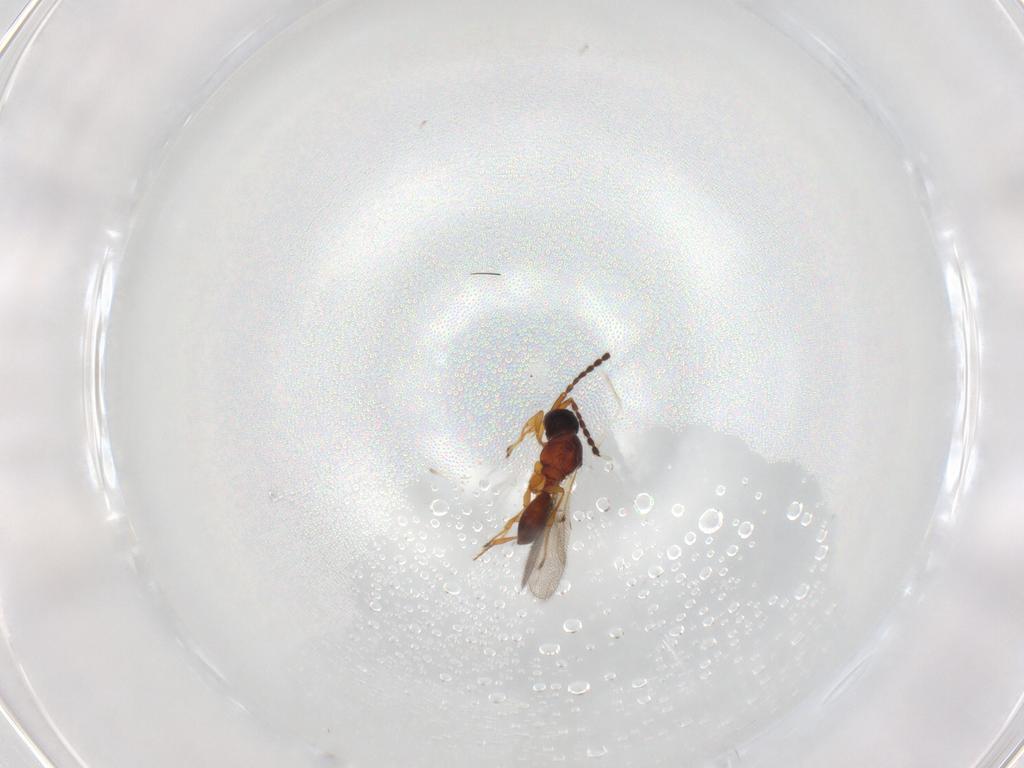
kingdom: Animalia
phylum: Arthropoda
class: Insecta
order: Hymenoptera
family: Diapriidae
